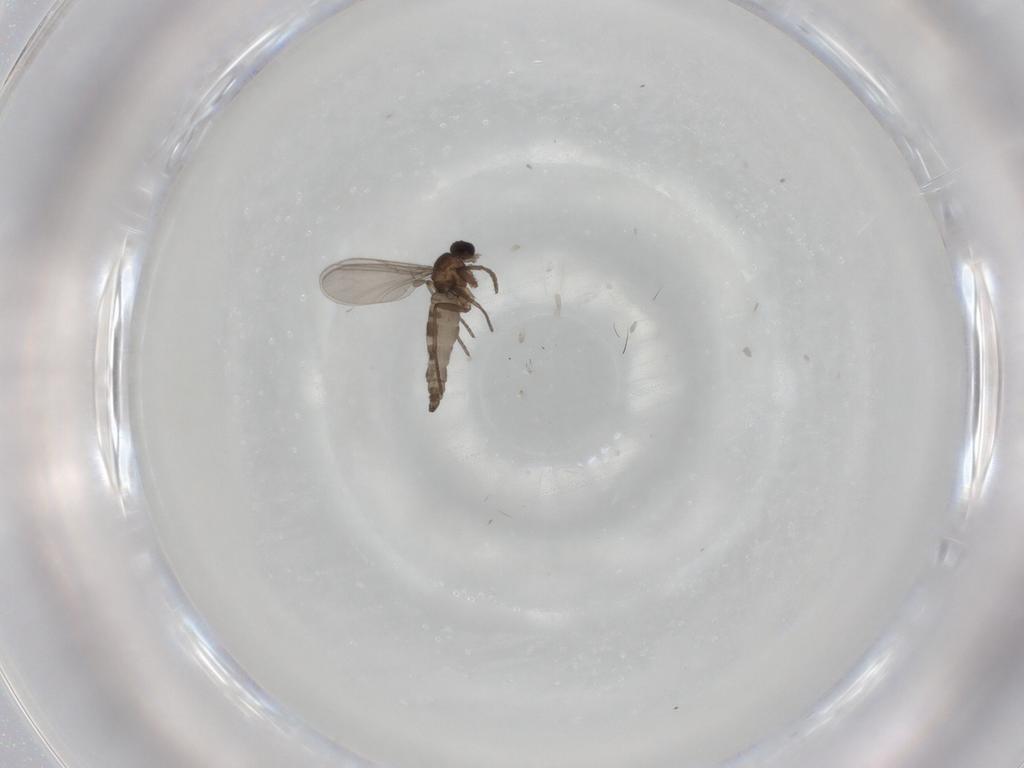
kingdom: Animalia
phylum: Arthropoda
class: Insecta
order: Diptera
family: Sciaridae
